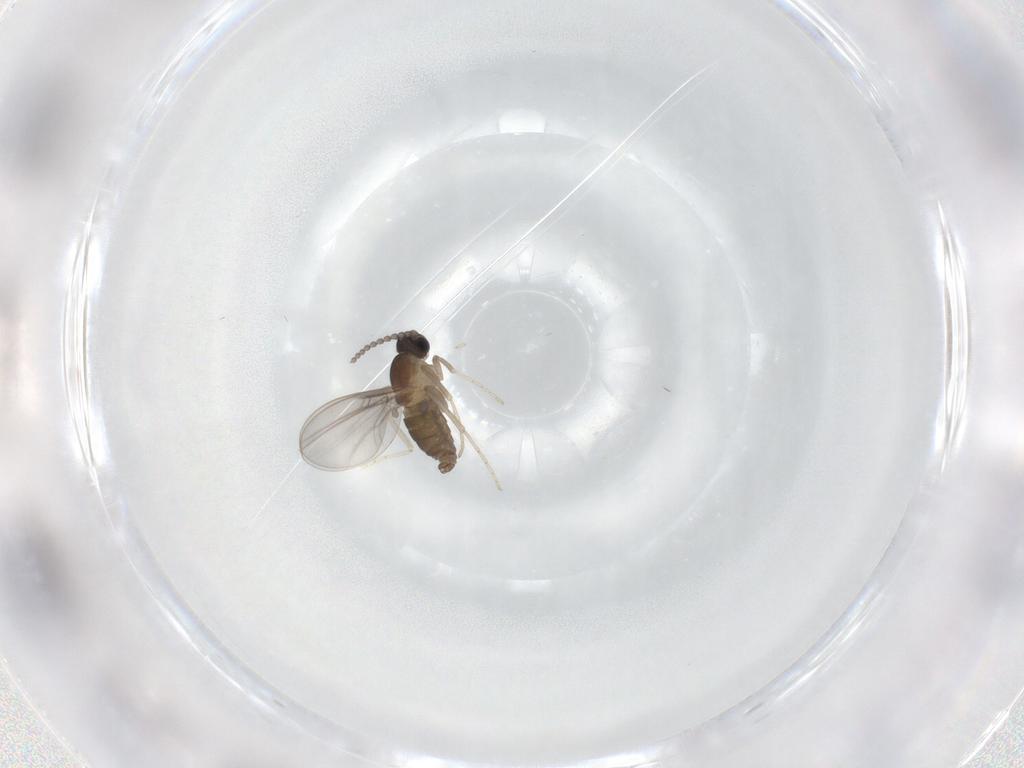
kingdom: Animalia
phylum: Arthropoda
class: Insecta
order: Diptera
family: Cecidomyiidae
